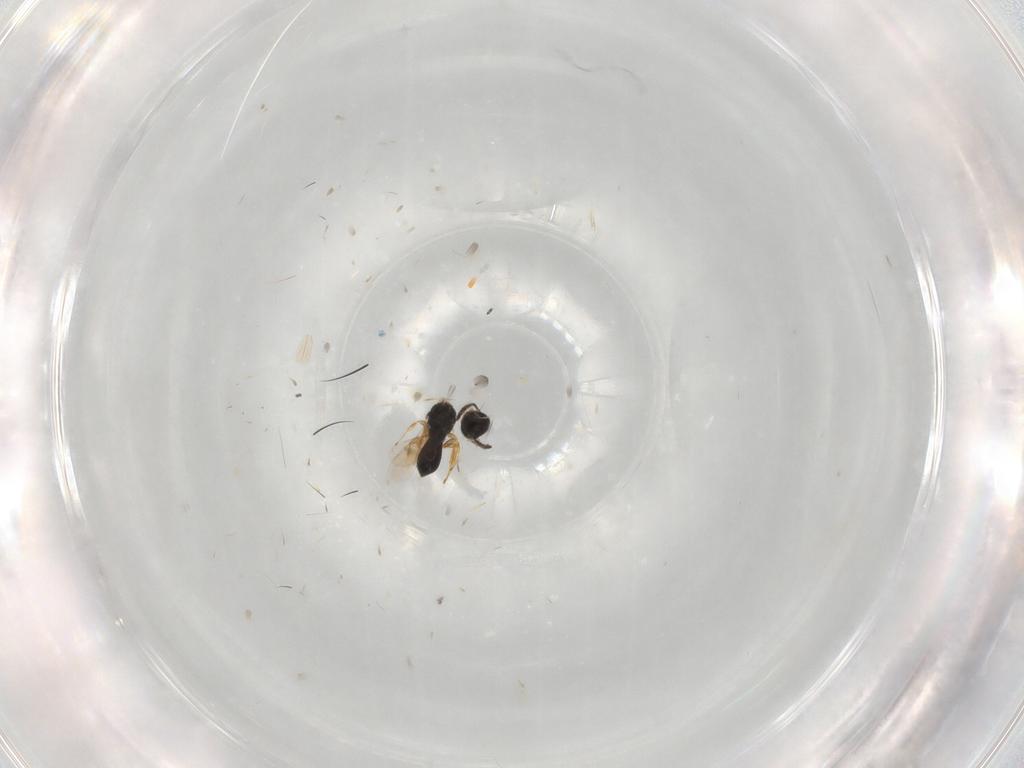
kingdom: Animalia
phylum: Arthropoda
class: Insecta
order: Hymenoptera
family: Scelionidae
